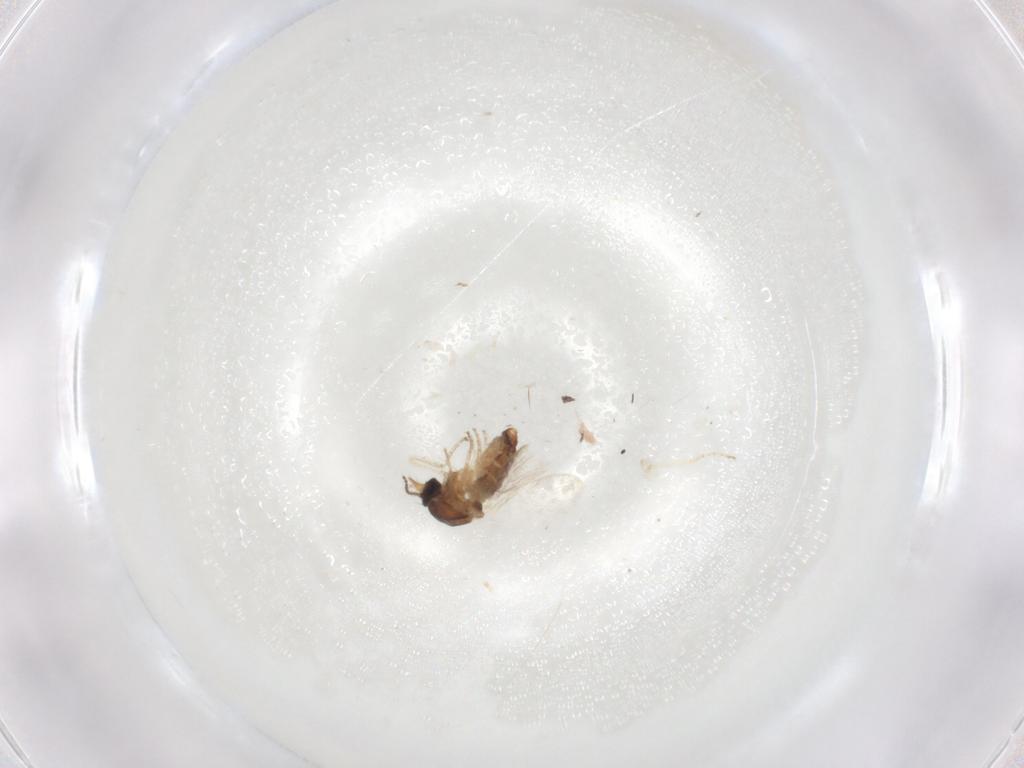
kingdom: Animalia
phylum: Arthropoda
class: Insecta
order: Diptera
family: Ceratopogonidae
